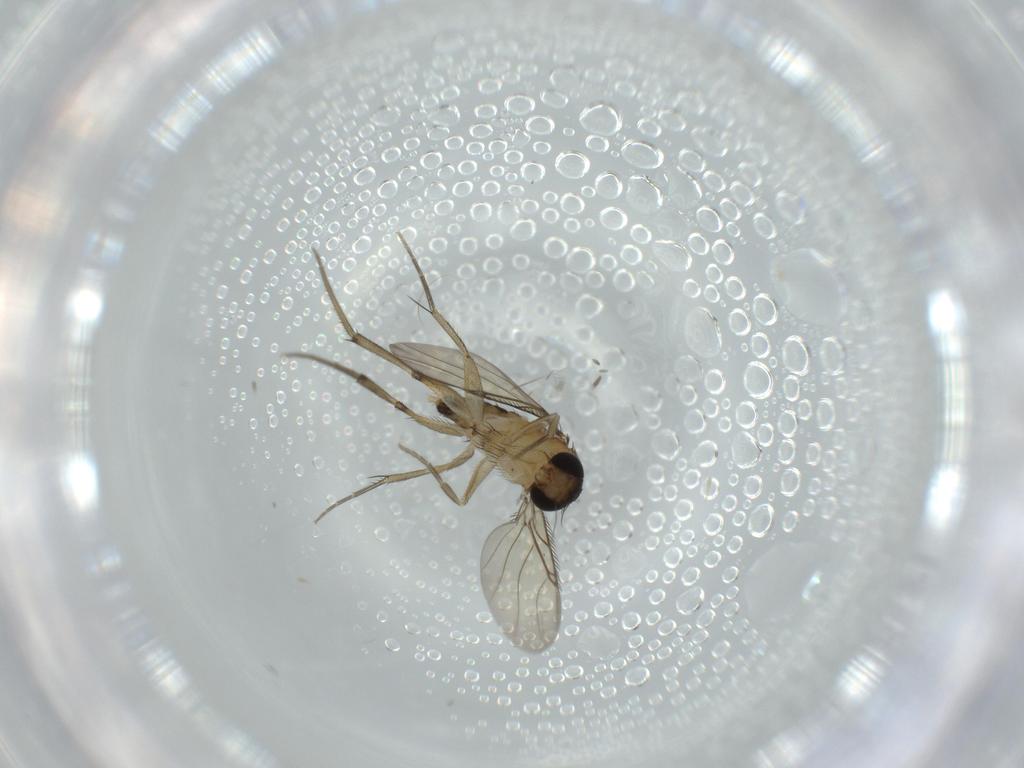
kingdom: Animalia
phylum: Arthropoda
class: Insecta
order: Diptera
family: Phoridae
